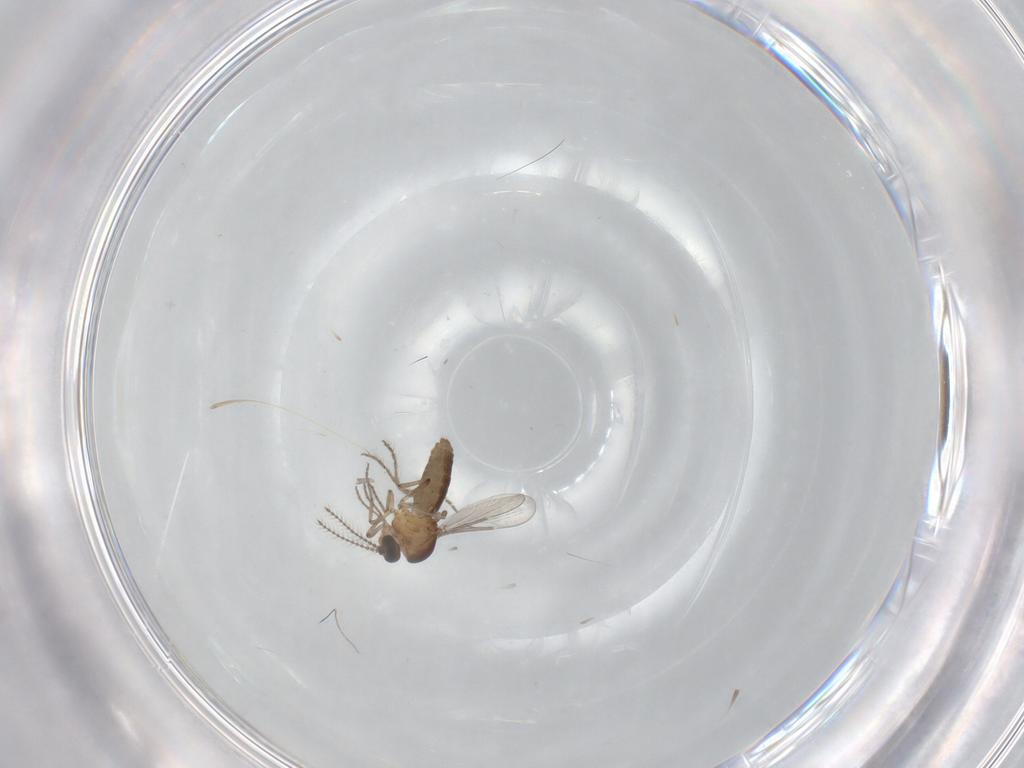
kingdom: Animalia
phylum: Arthropoda
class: Insecta
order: Diptera
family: Ceratopogonidae
